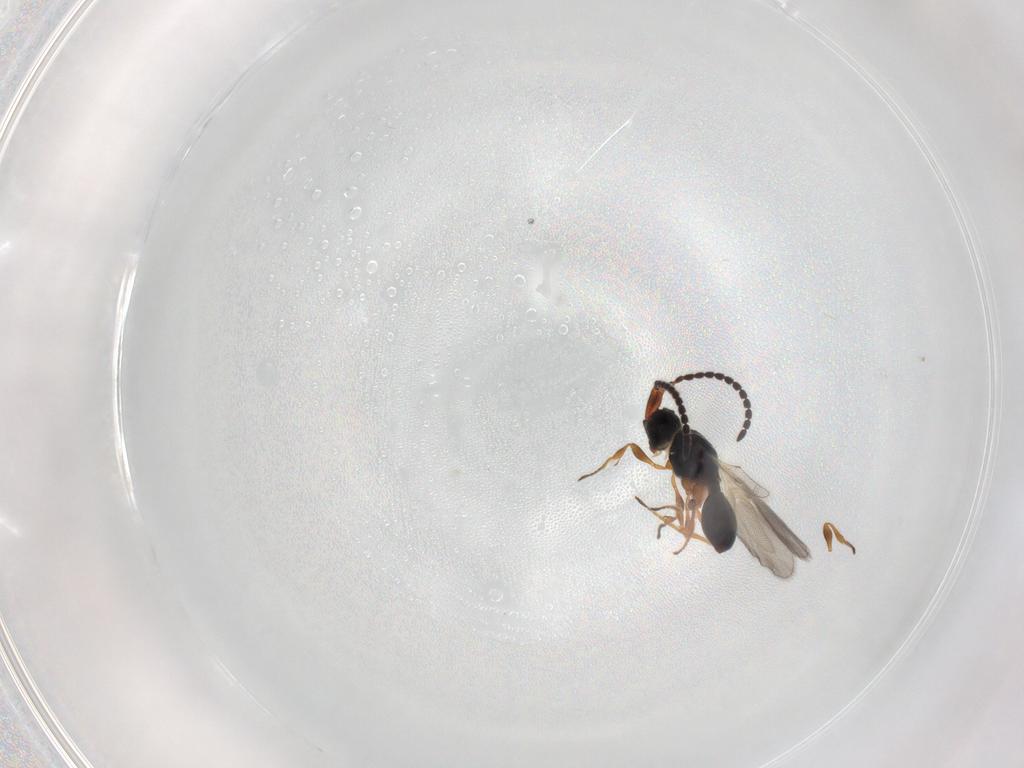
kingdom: Animalia
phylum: Arthropoda
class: Insecta
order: Hymenoptera
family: Diapriidae
